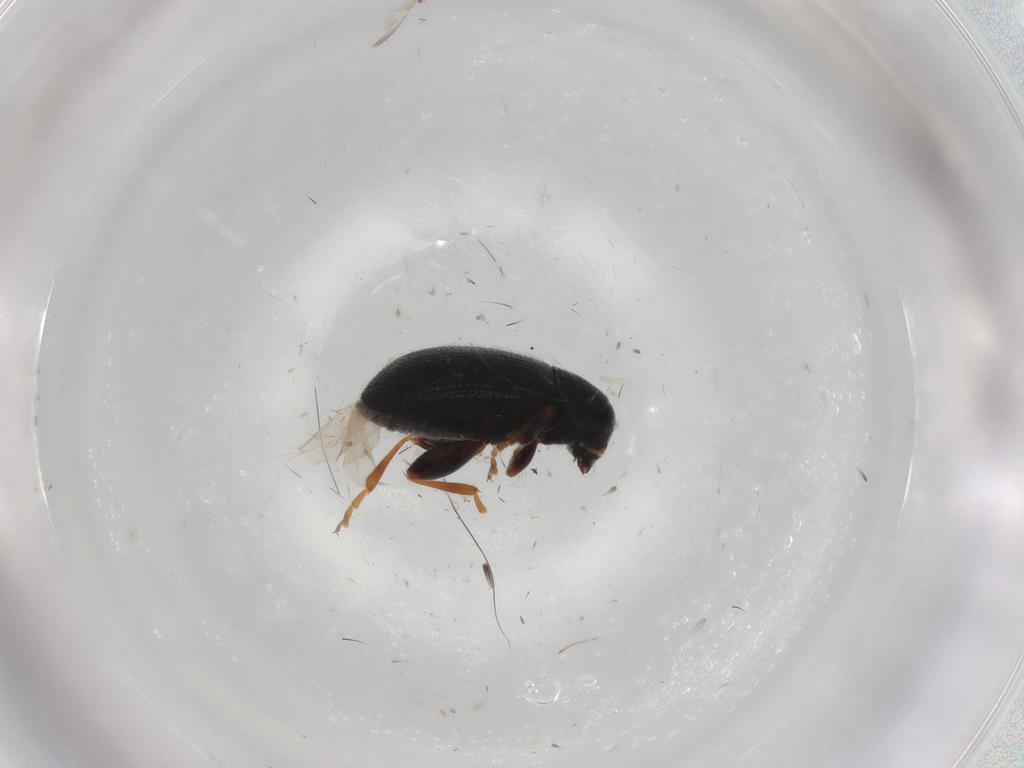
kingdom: Animalia
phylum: Arthropoda
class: Insecta
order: Coleoptera
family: Chrysomelidae
